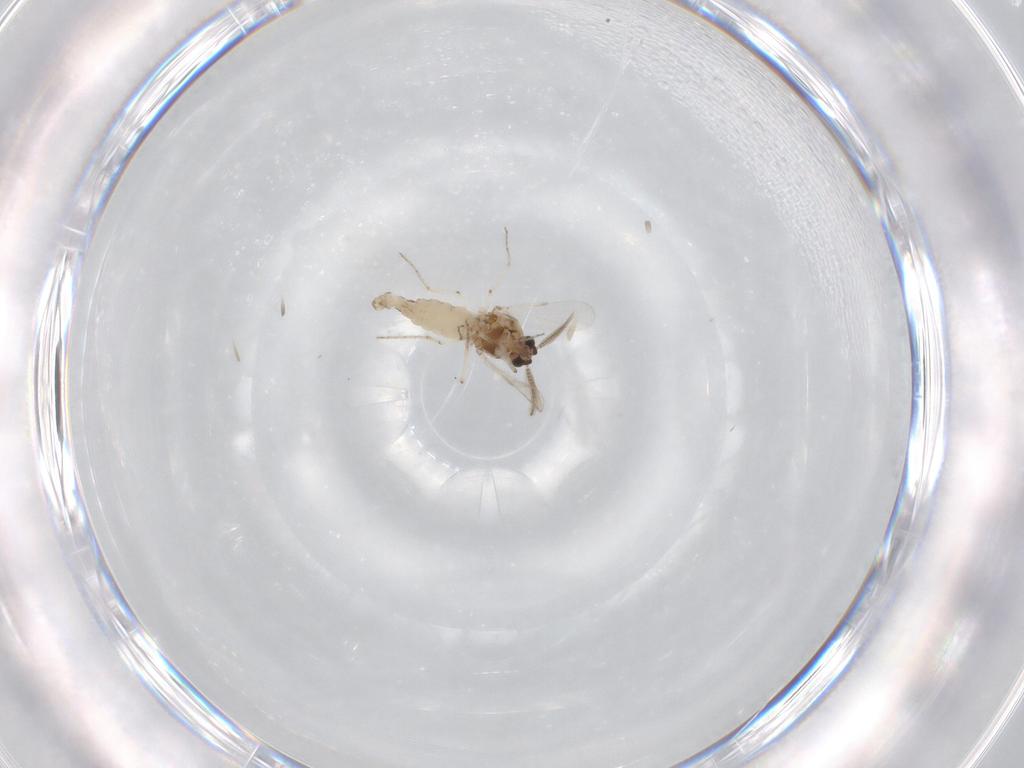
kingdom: Animalia
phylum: Arthropoda
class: Insecta
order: Diptera
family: Ceratopogonidae
